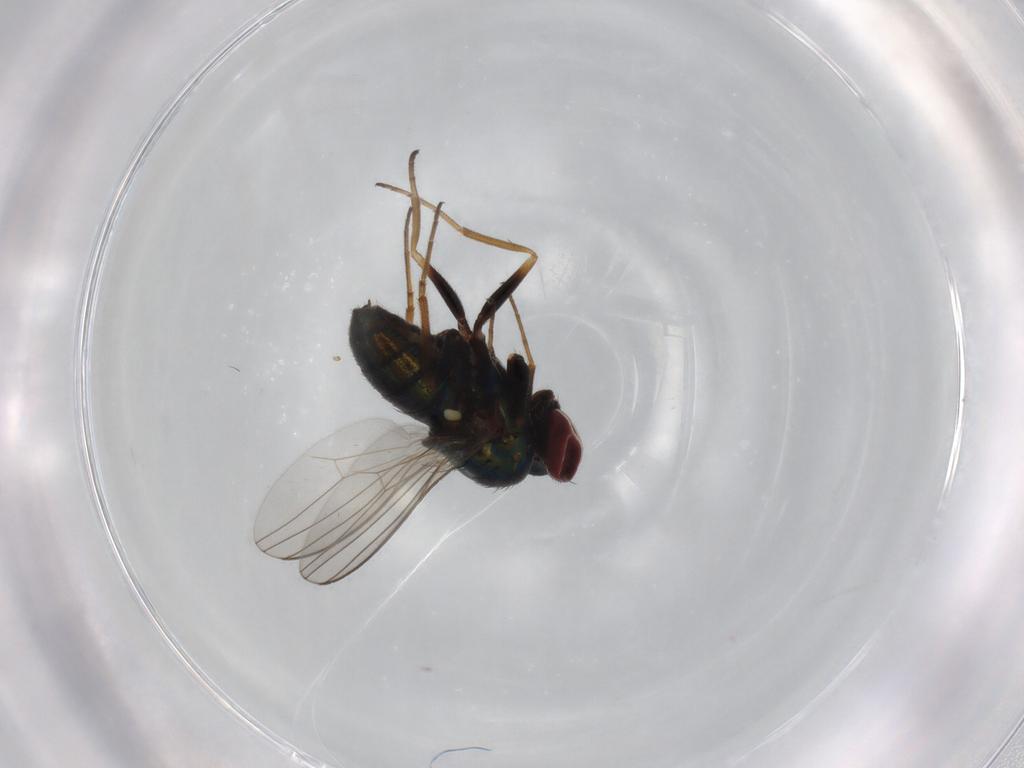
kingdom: Animalia
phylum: Arthropoda
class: Insecta
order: Diptera
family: Dolichopodidae
